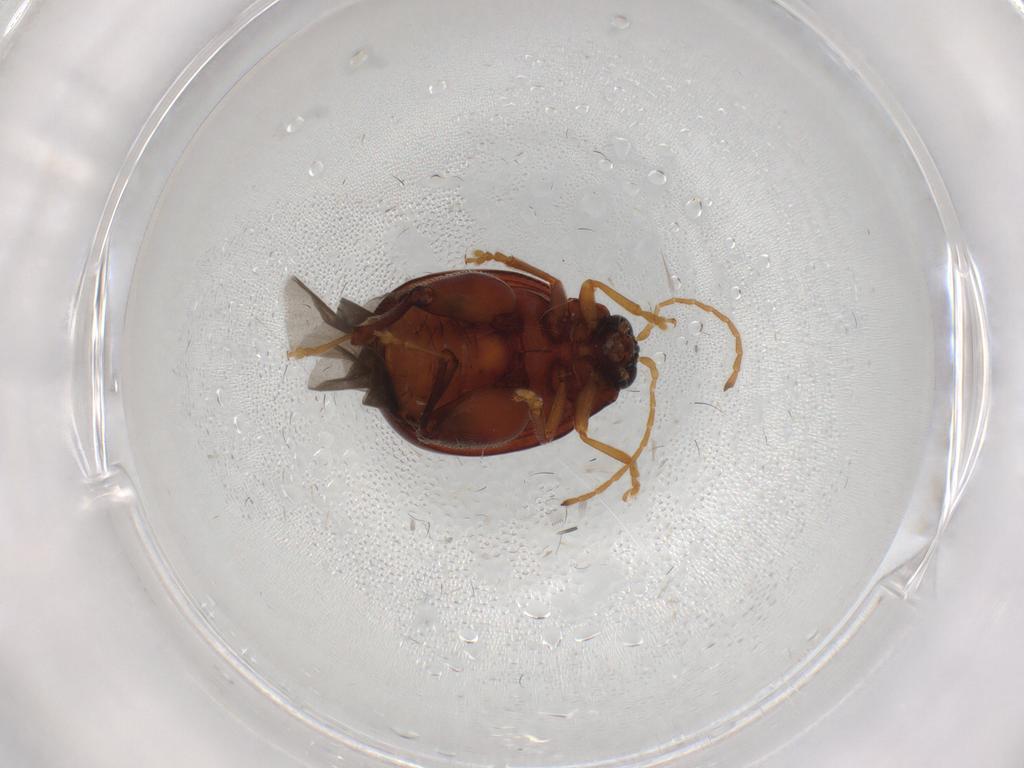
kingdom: Animalia
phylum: Arthropoda
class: Insecta
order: Coleoptera
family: Chrysomelidae
